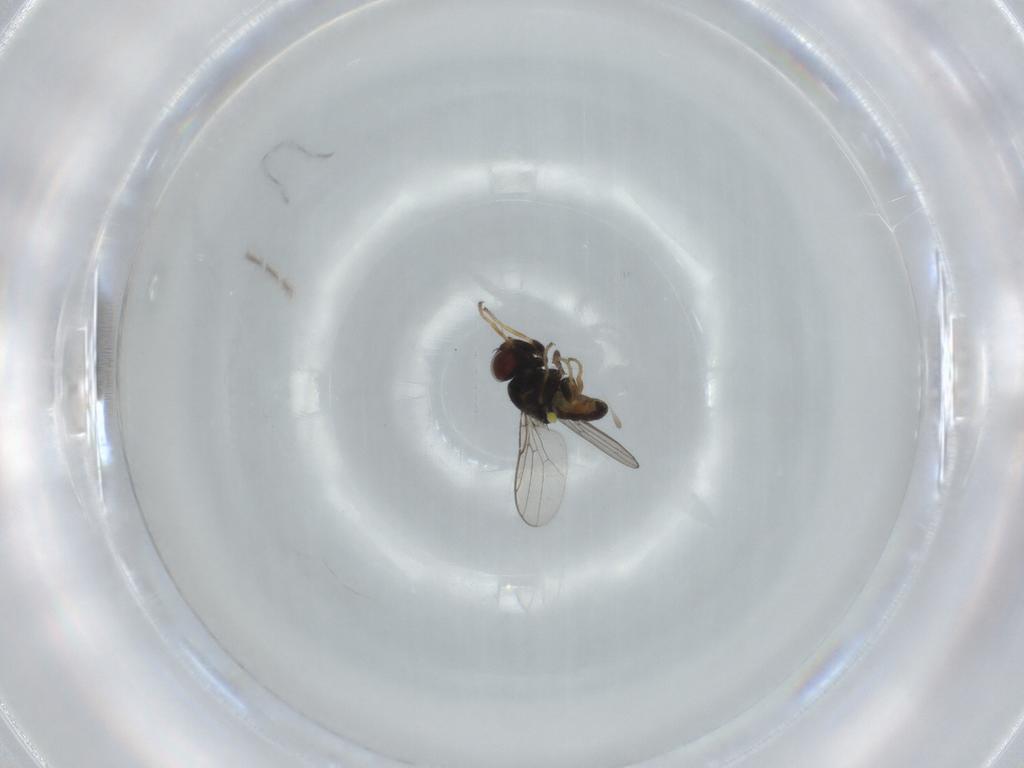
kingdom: Animalia
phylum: Arthropoda
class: Insecta
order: Diptera
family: Chloropidae
